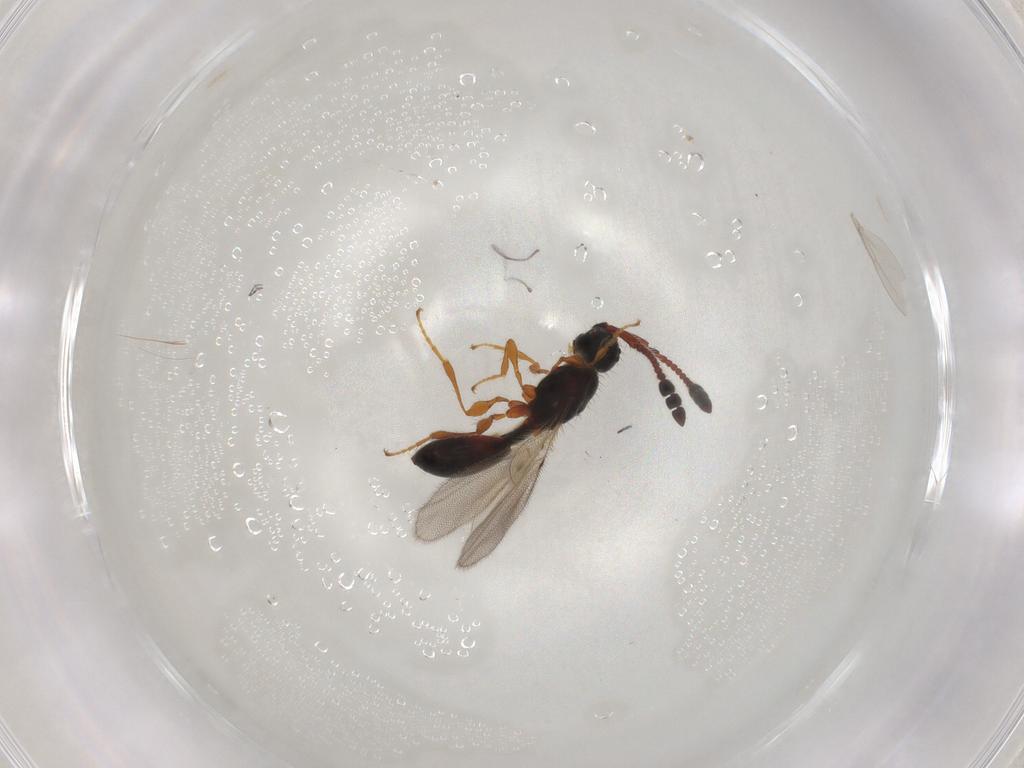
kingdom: Animalia
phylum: Arthropoda
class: Insecta
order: Hymenoptera
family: Diapriidae
